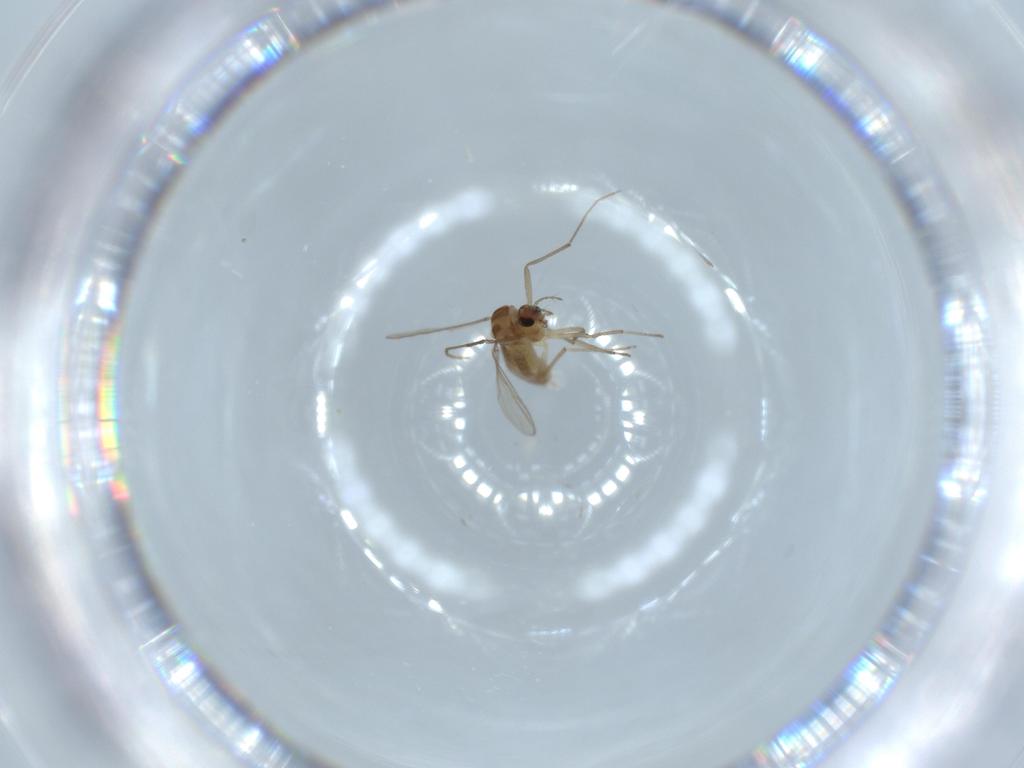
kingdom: Animalia
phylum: Arthropoda
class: Insecta
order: Diptera
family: Chironomidae
